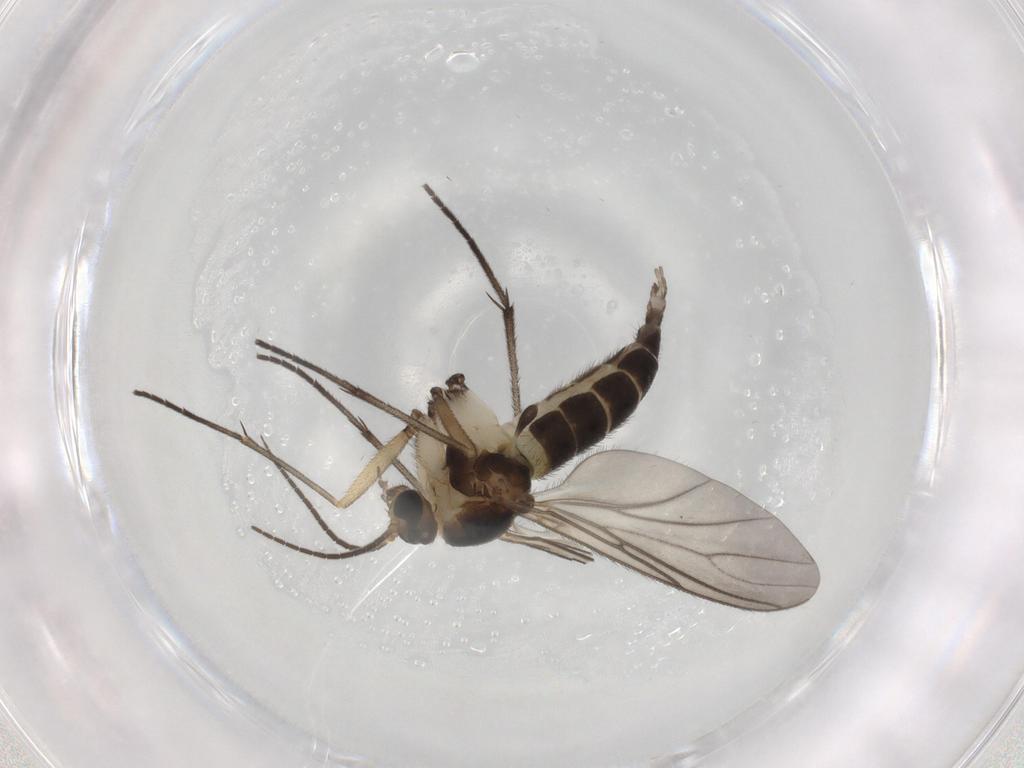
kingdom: Animalia
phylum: Arthropoda
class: Insecta
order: Diptera
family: Sciaridae
